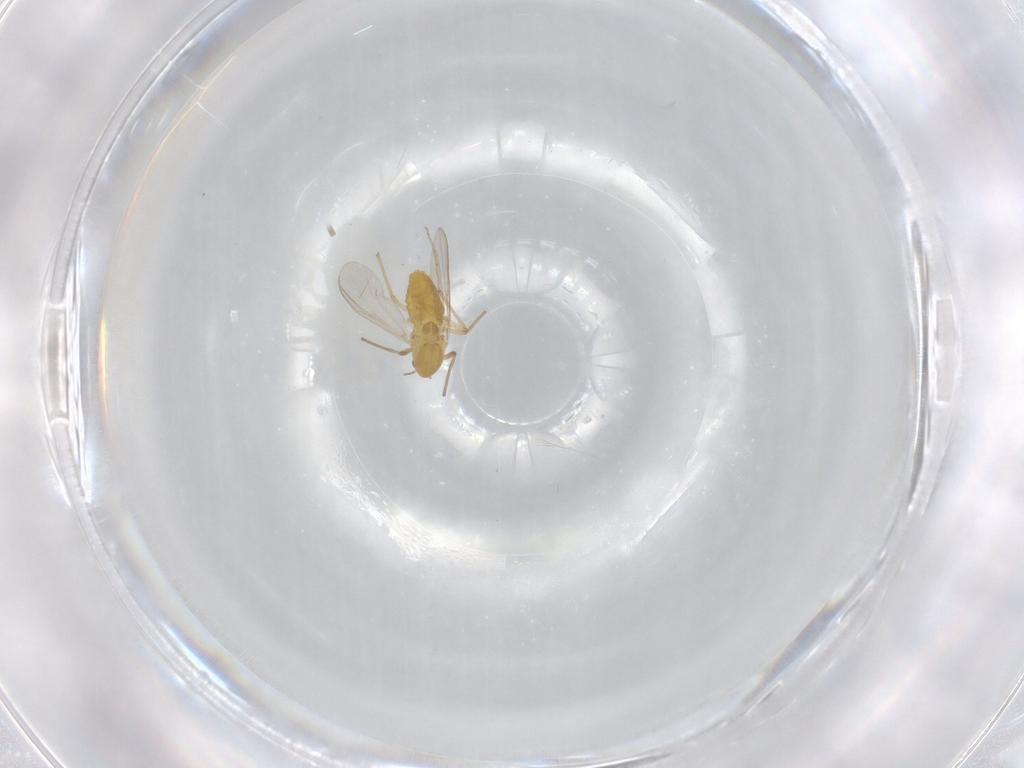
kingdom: Animalia
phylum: Arthropoda
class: Insecta
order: Diptera
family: Chironomidae
